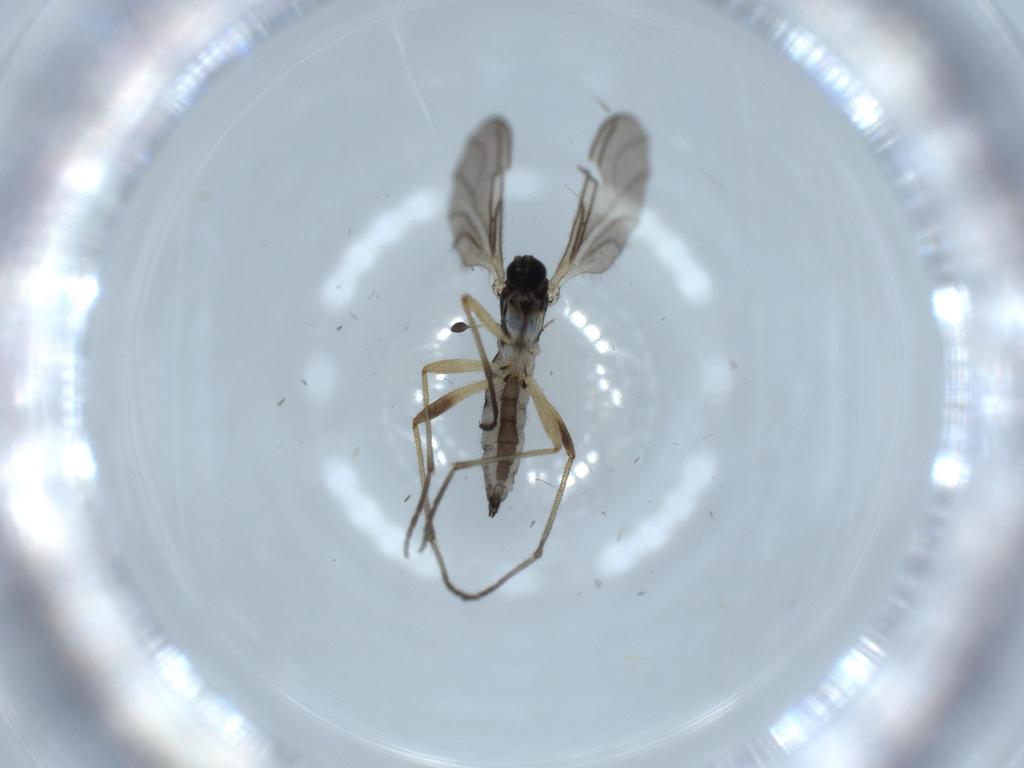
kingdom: Animalia
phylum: Arthropoda
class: Insecta
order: Diptera
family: Sciaridae
